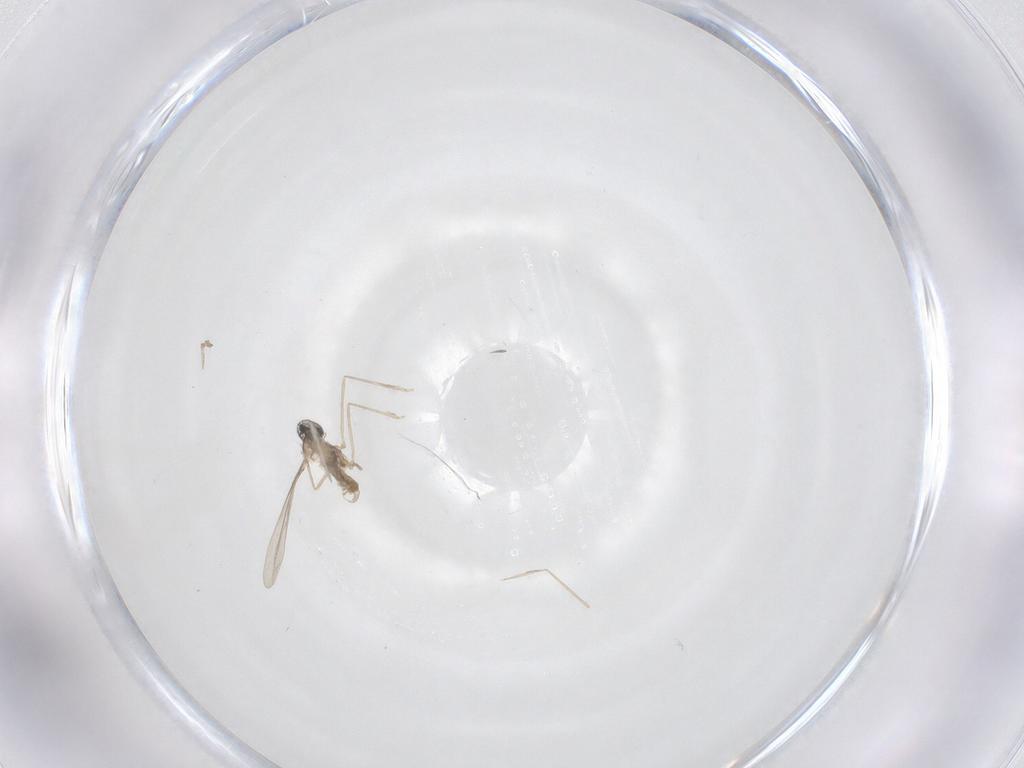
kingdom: Animalia
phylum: Arthropoda
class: Insecta
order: Diptera
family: Cecidomyiidae
